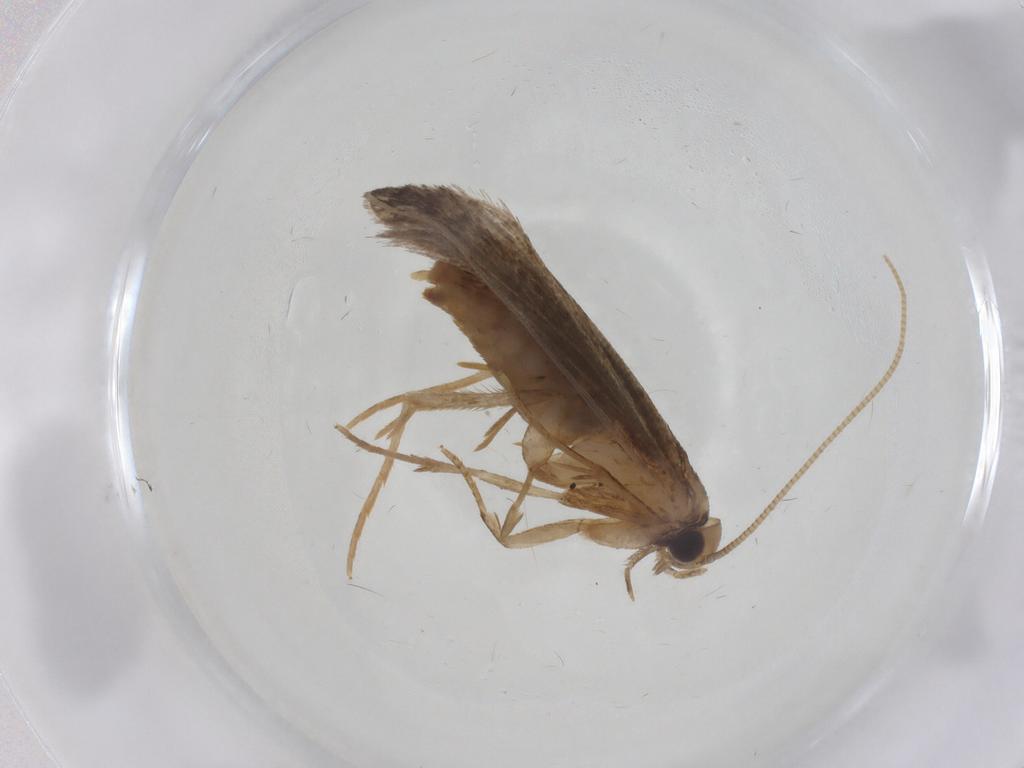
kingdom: Animalia
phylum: Arthropoda
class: Insecta
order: Lepidoptera
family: Tineidae
